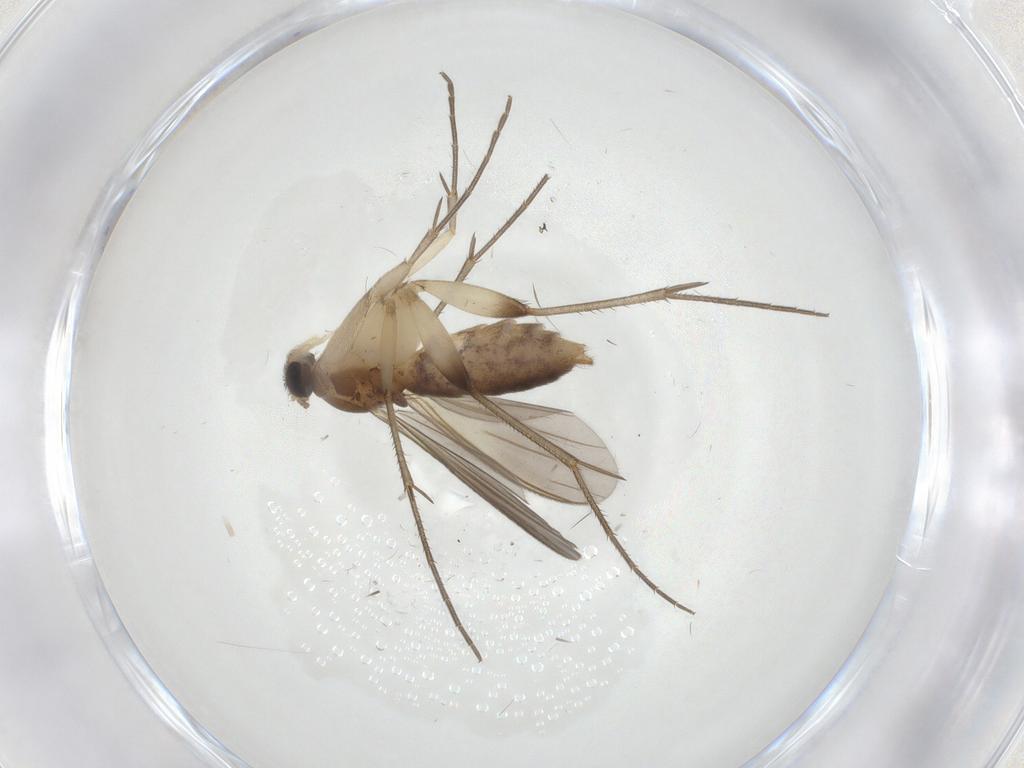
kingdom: Animalia
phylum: Arthropoda
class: Insecta
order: Diptera
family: Mycetophilidae
